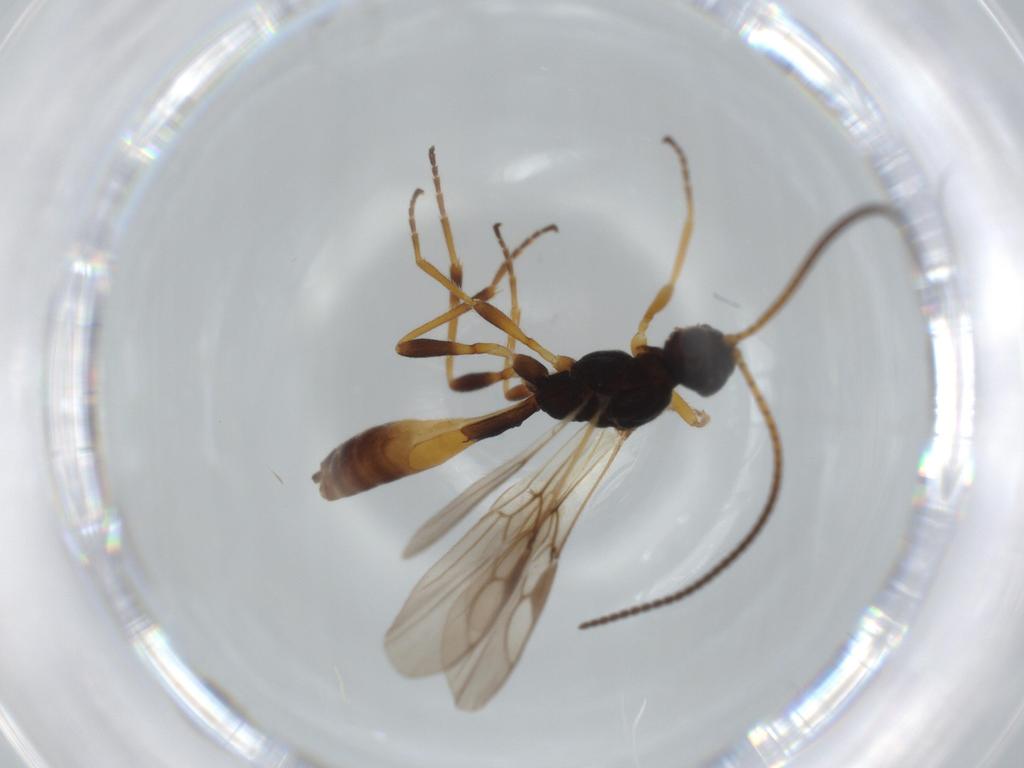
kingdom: Animalia
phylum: Arthropoda
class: Insecta
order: Hymenoptera
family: Braconidae
